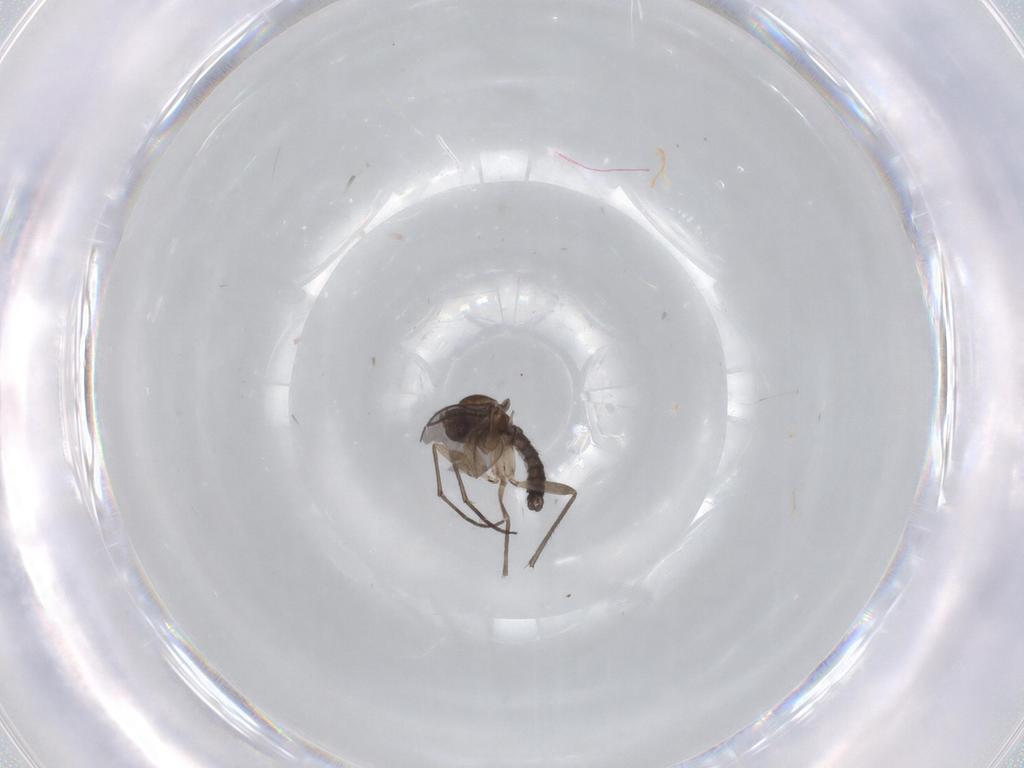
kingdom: Animalia
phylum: Arthropoda
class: Insecta
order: Diptera
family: Sciaridae
